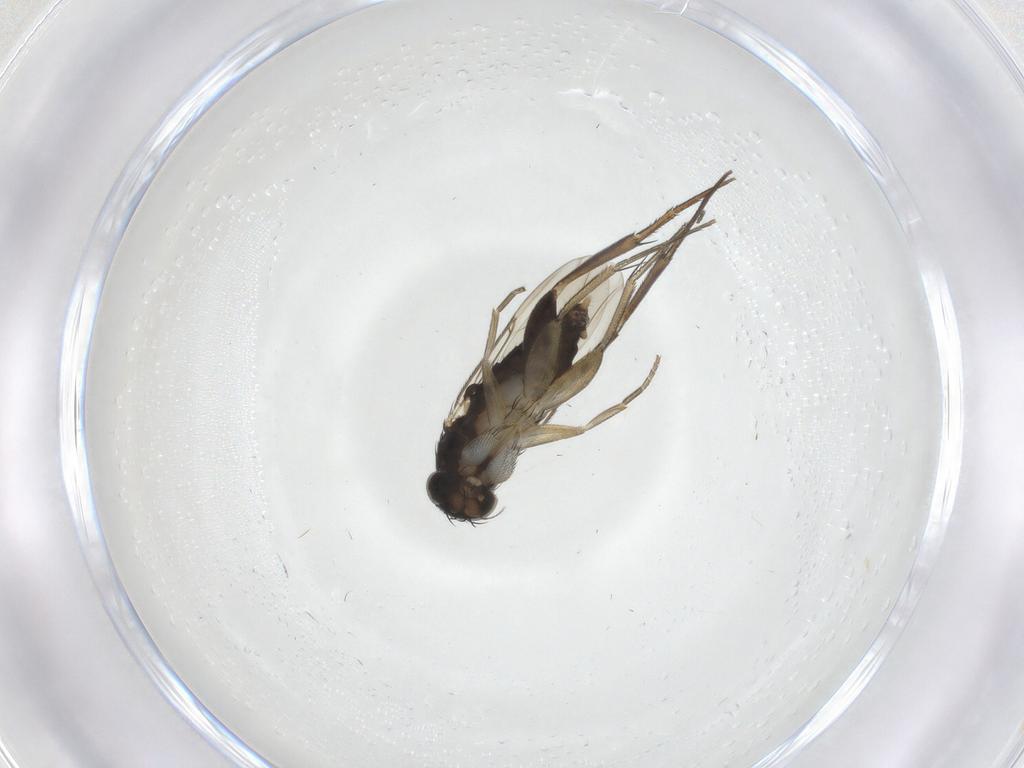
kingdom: Animalia
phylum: Arthropoda
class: Insecta
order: Diptera
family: Phoridae
